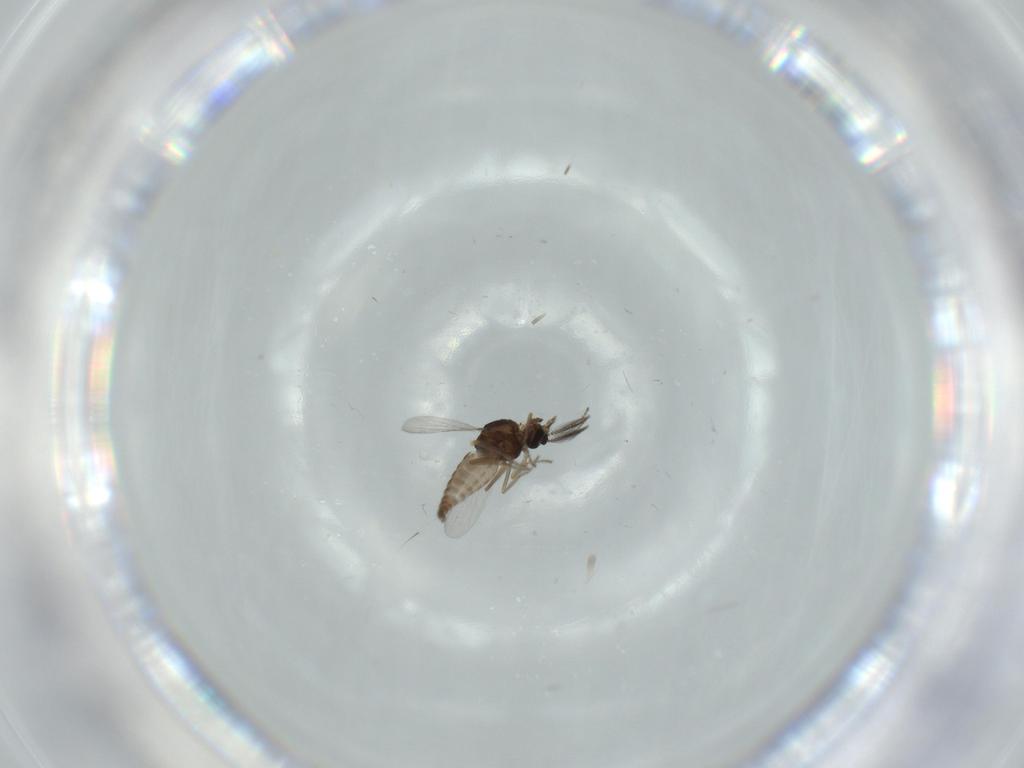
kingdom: Animalia
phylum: Arthropoda
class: Insecta
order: Diptera
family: Ceratopogonidae
